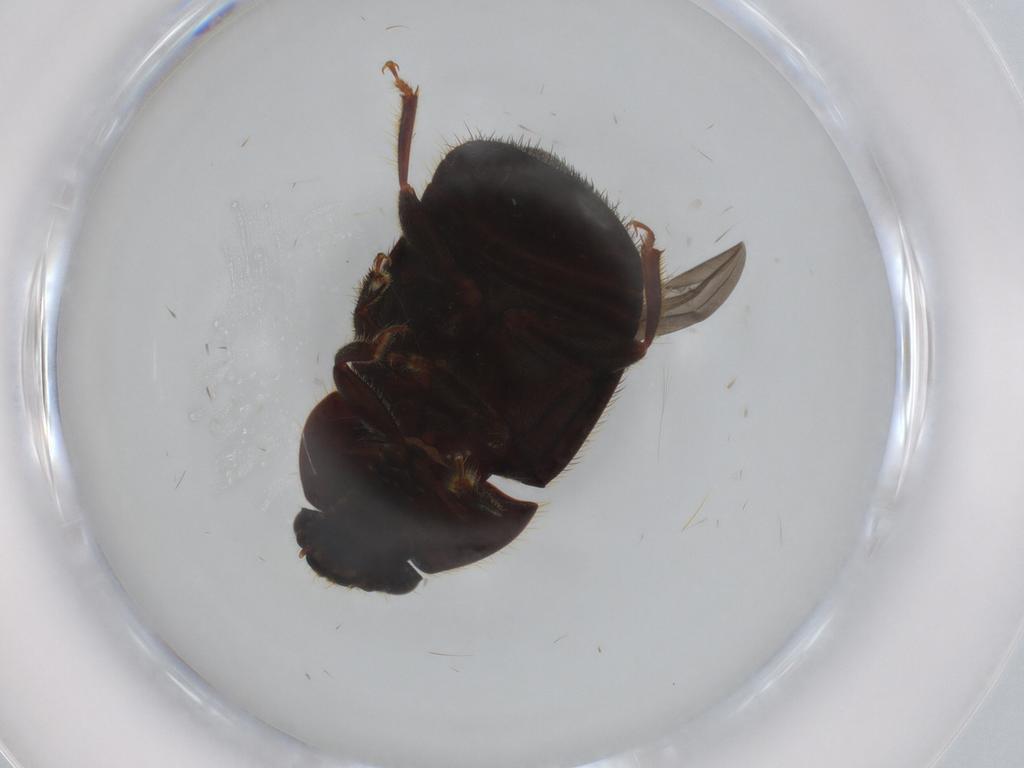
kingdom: Animalia
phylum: Arthropoda
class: Insecta
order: Coleoptera
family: Nitidulidae
